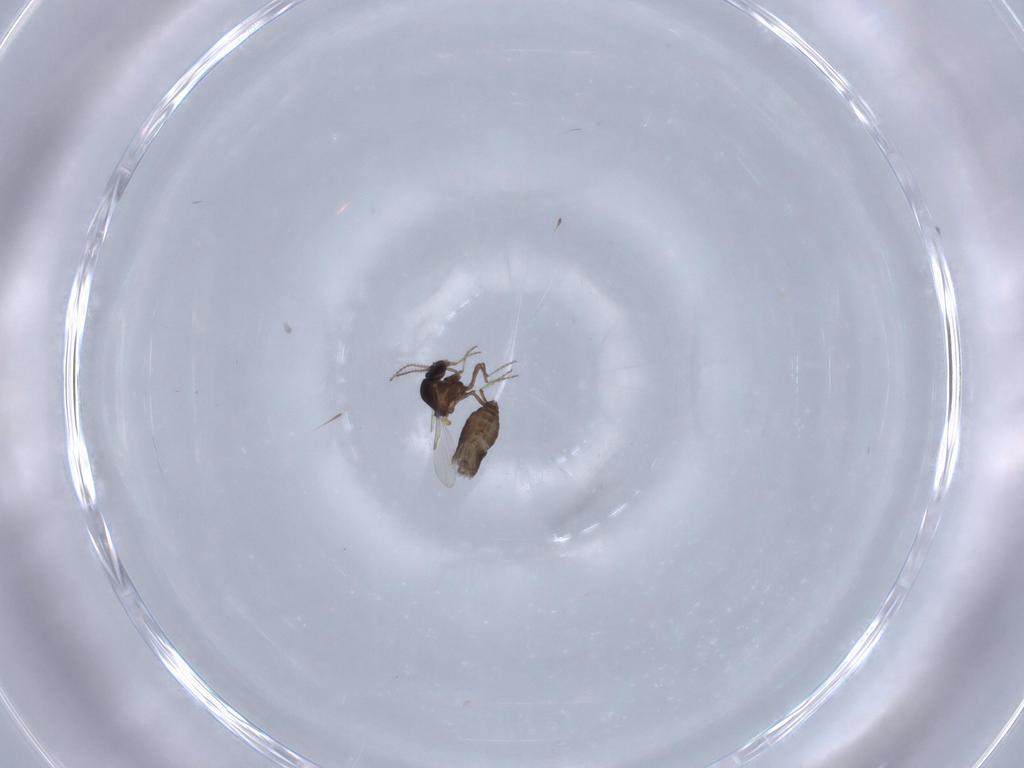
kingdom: Animalia
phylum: Arthropoda
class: Insecta
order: Diptera
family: Ceratopogonidae
